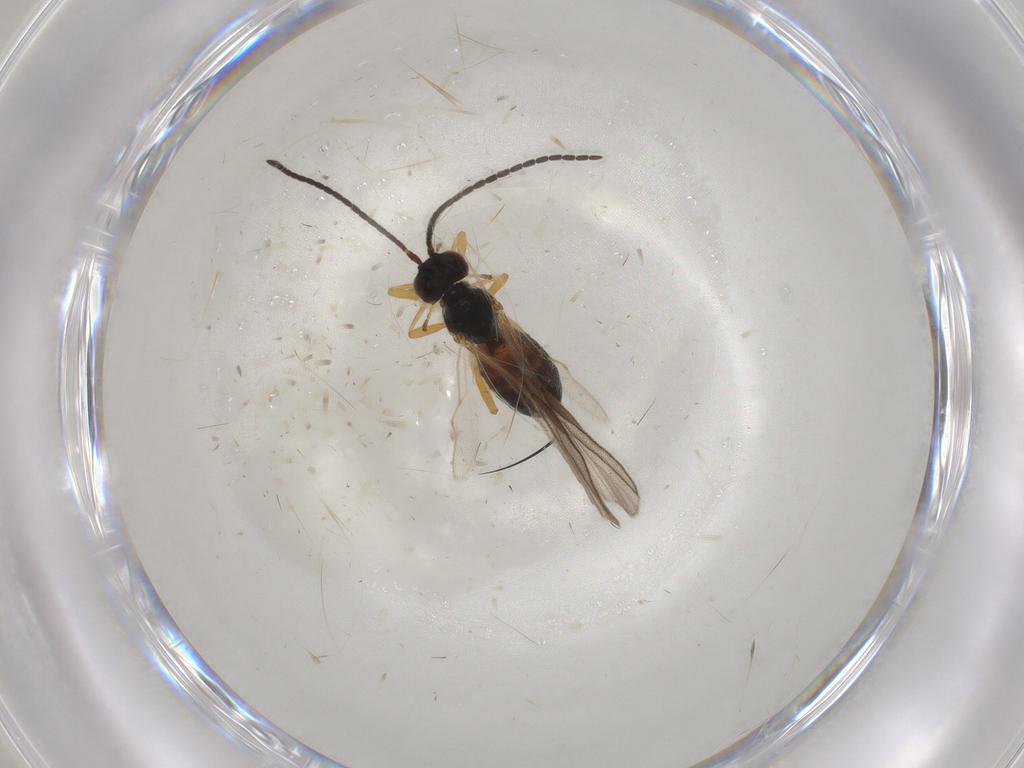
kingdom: Animalia
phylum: Arthropoda
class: Insecta
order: Hymenoptera
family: Braconidae
